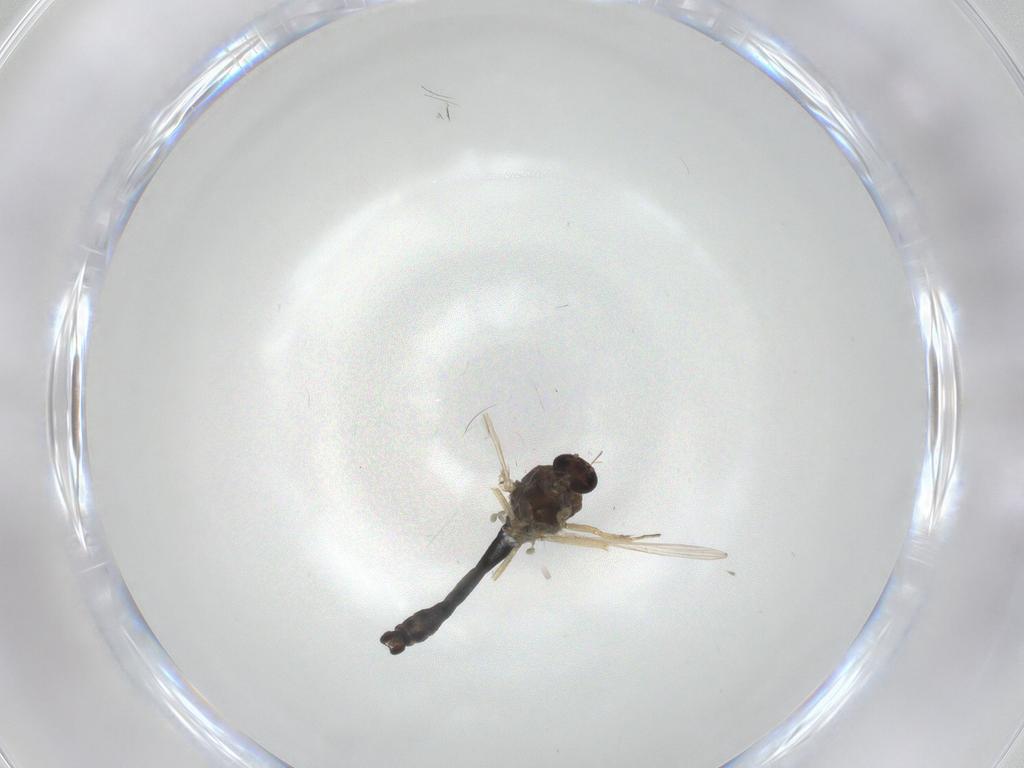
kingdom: Animalia
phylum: Arthropoda
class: Insecta
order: Diptera
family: Ceratopogonidae
